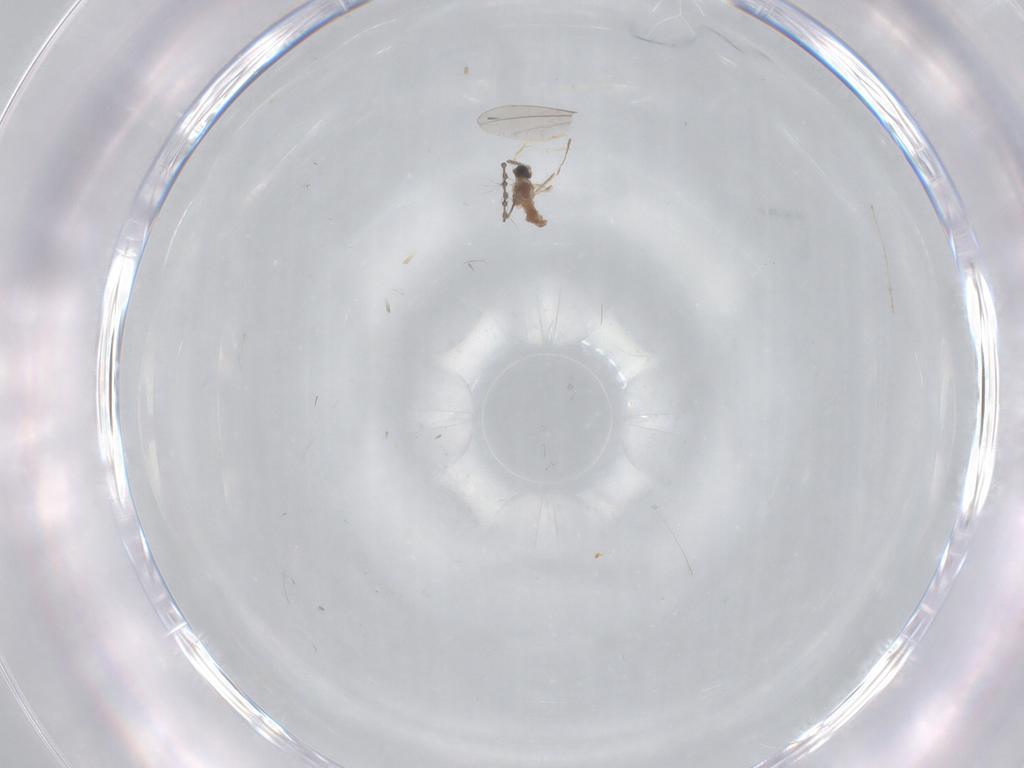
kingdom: Animalia
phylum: Arthropoda
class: Insecta
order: Diptera
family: Cecidomyiidae
